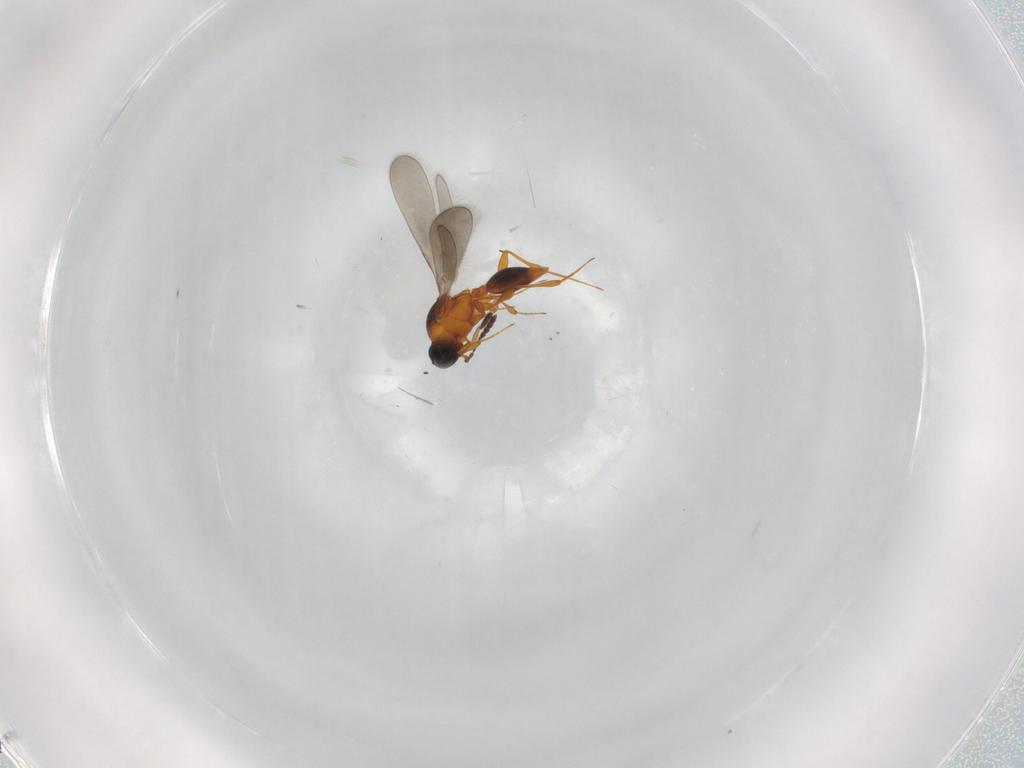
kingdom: Animalia
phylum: Arthropoda
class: Insecta
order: Hymenoptera
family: Platygastridae
